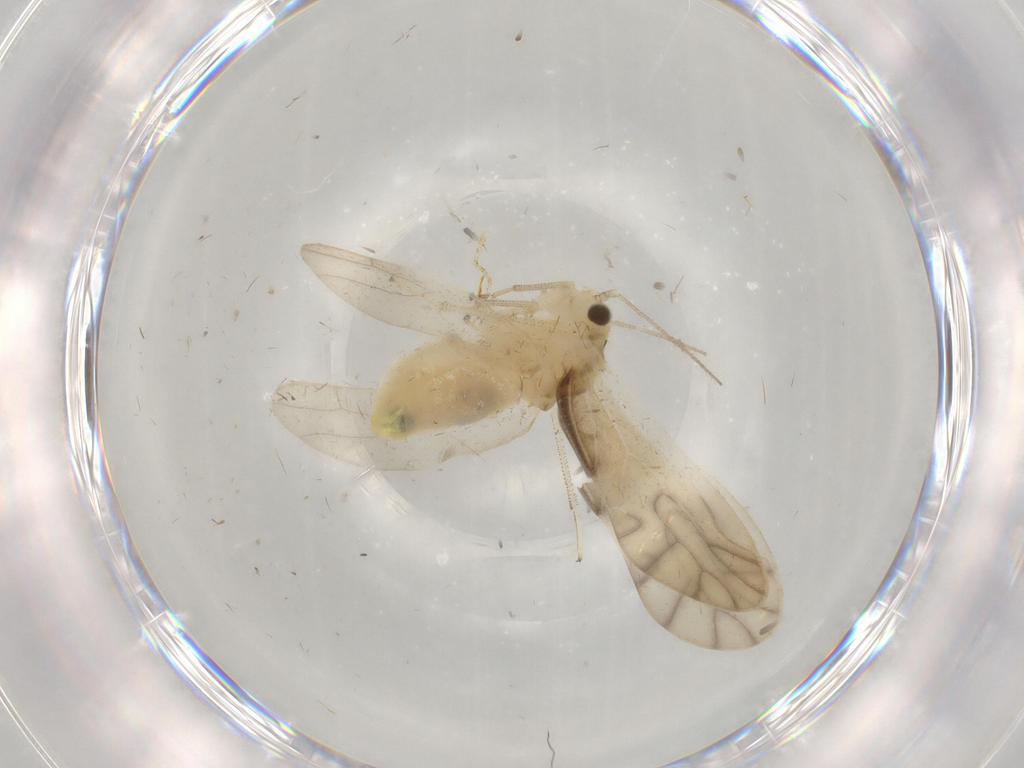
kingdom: Animalia
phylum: Arthropoda
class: Insecta
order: Psocodea
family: Caeciliusidae
